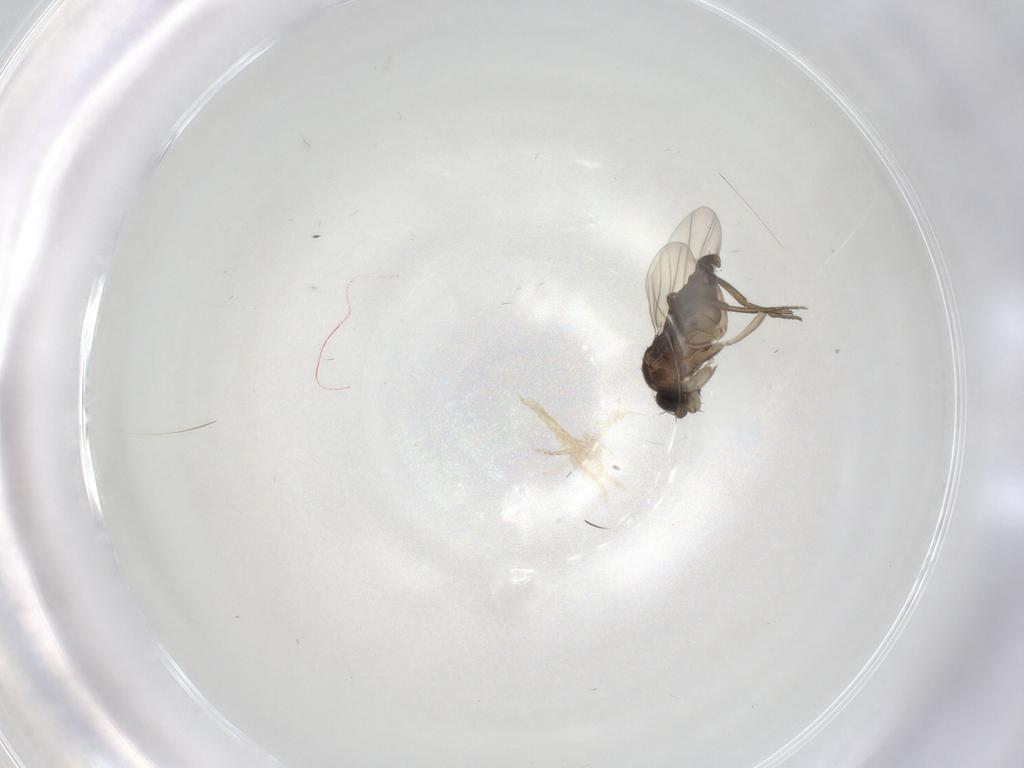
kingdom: Animalia
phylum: Arthropoda
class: Insecta
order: Diptera
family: Phoridae
